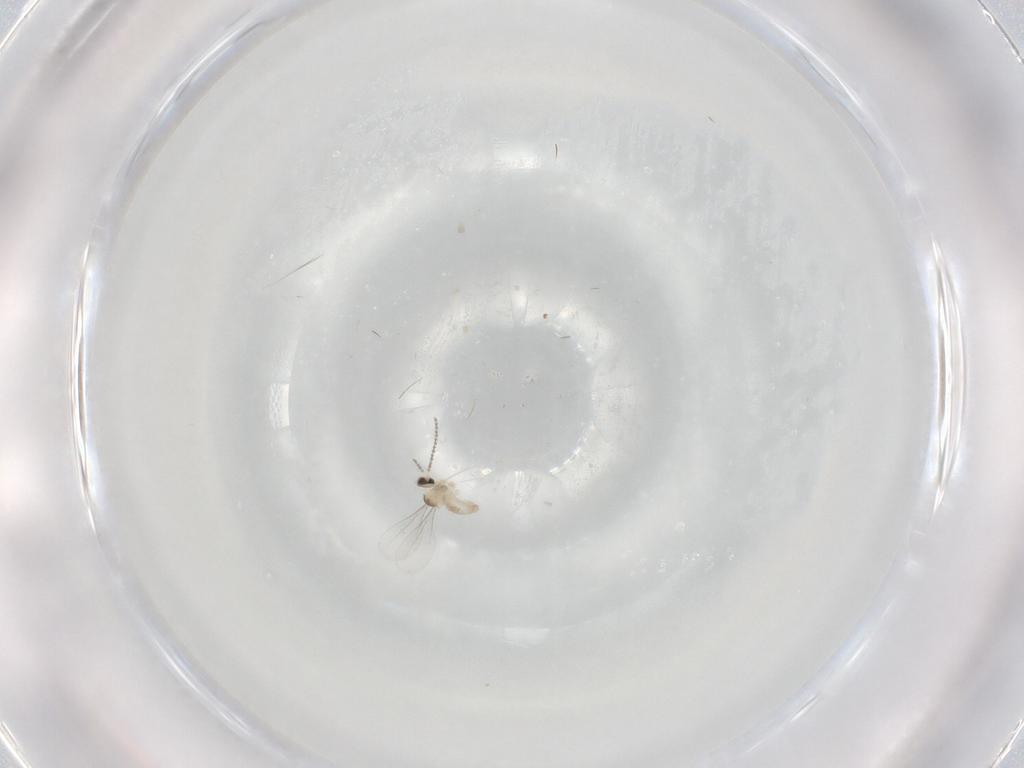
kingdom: Animalia
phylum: Arthropoda
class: Insecta
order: Diptera
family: Cecidomyiidae
